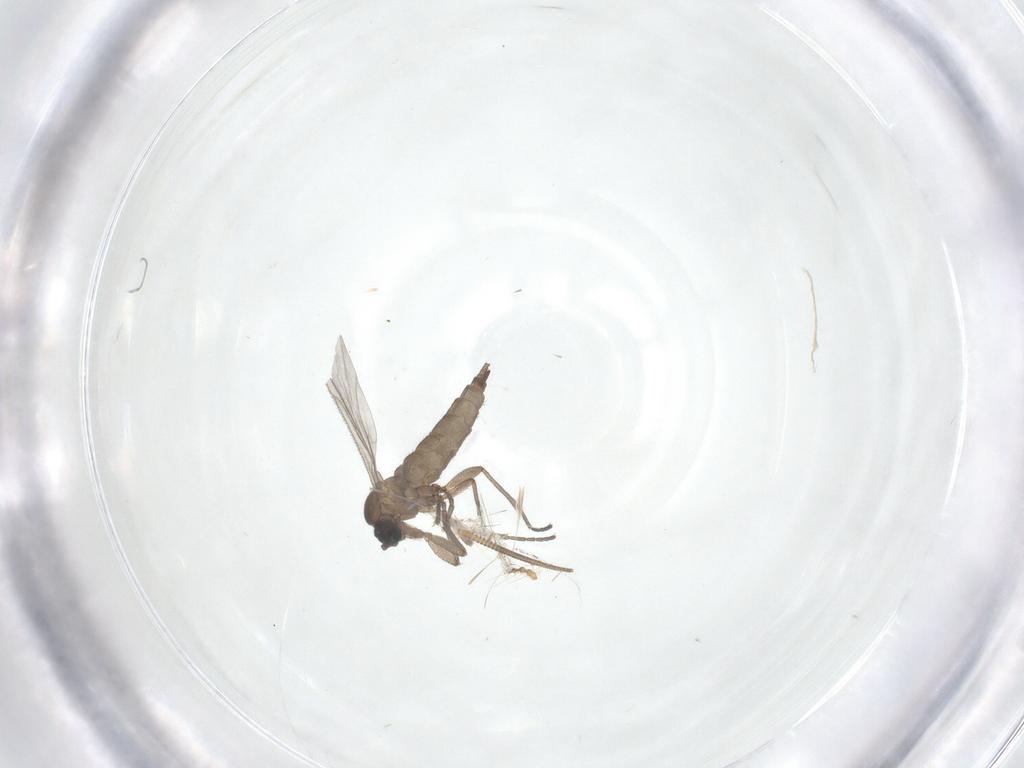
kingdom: Animalia
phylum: Arthropoda
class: Insecta
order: Diptera
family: Sciaridae
